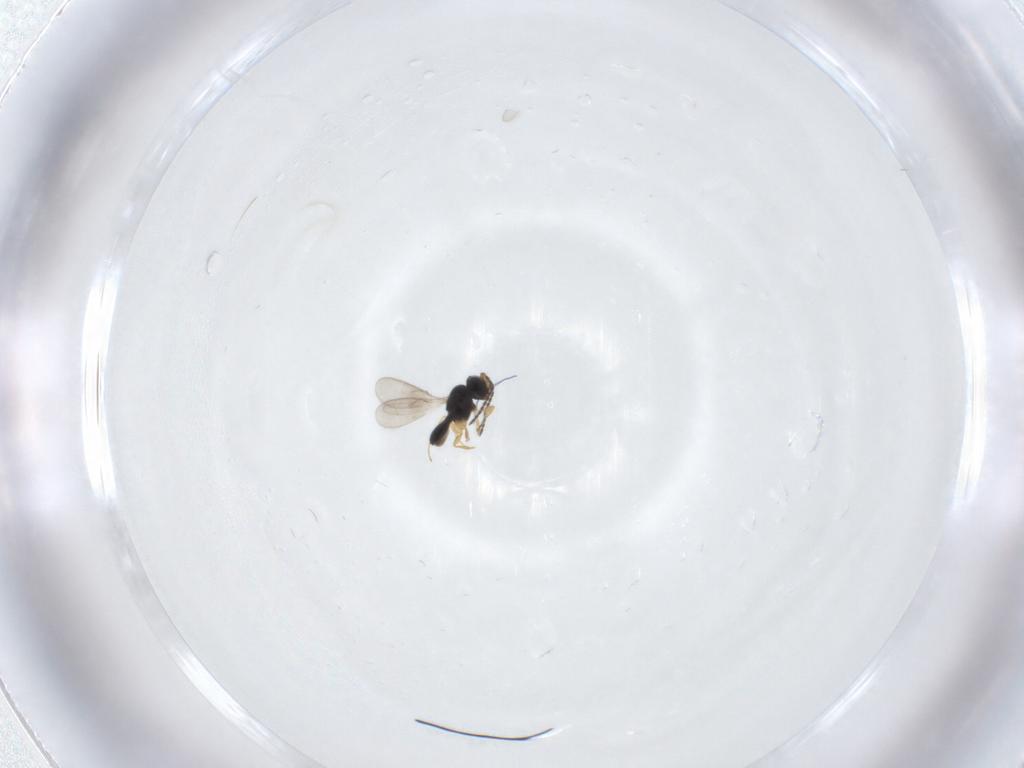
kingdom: Animalia
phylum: Arthropoda
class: Insecta
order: Hymenoptera
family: Scelionidae
